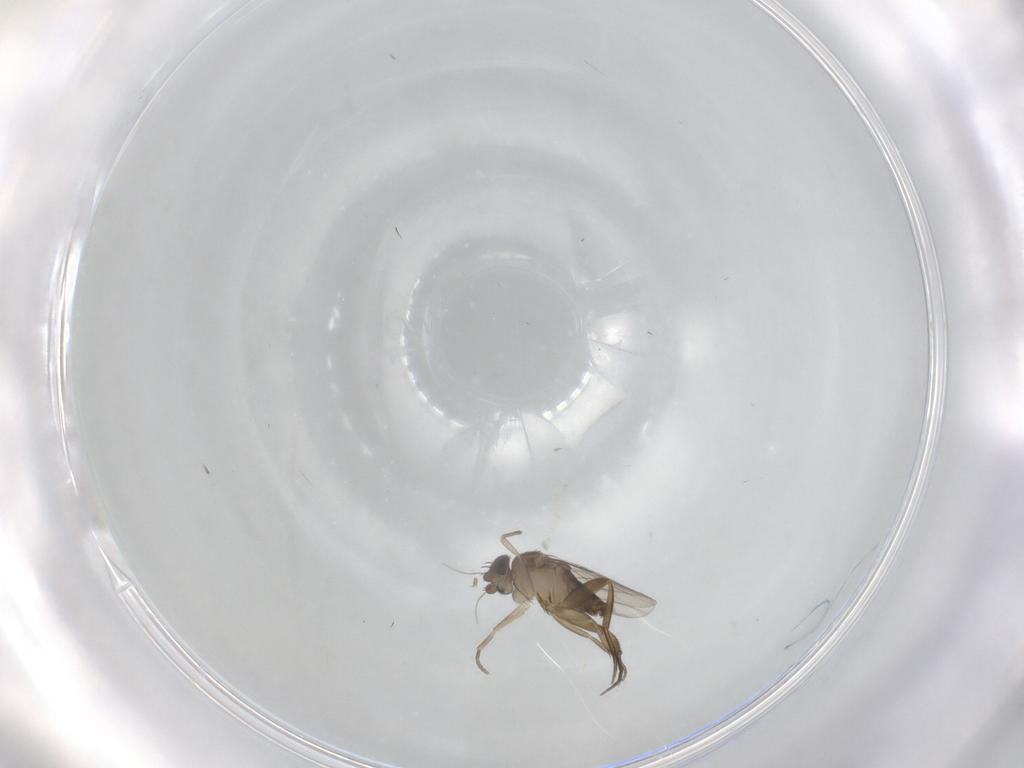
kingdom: Animalia
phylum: Arthropoda
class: Insecta
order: Diptera
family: Phoridae
